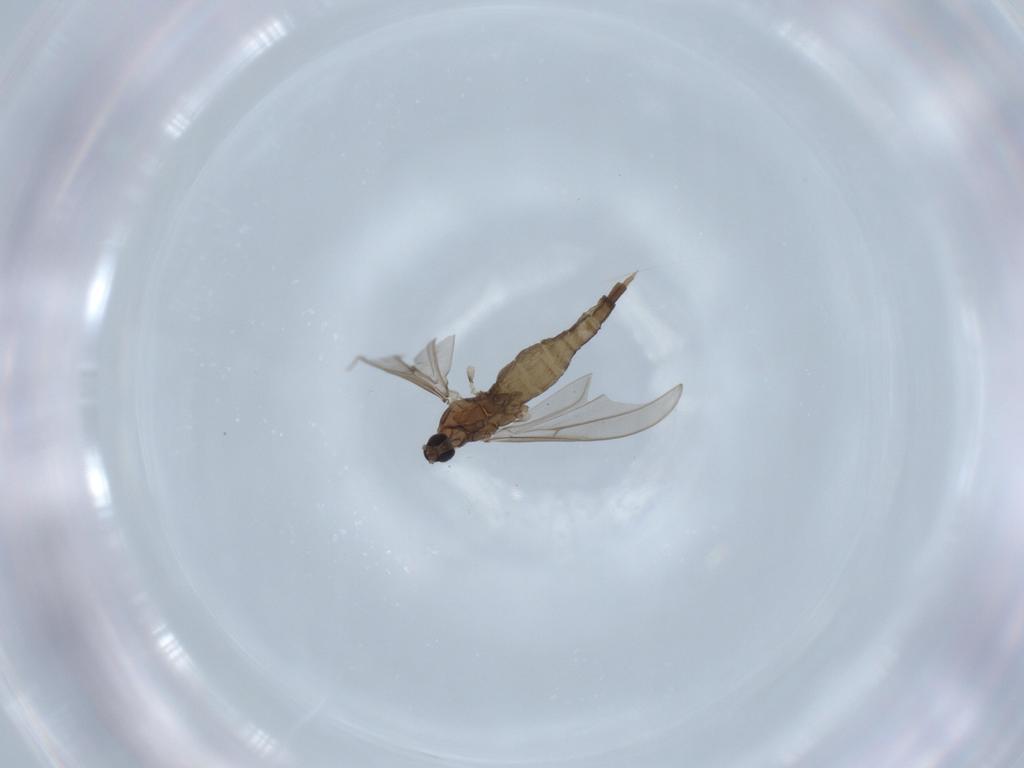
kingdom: Animalia
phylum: Arthropoda
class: Insecta
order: Diptera
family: Cecidomyiidae
